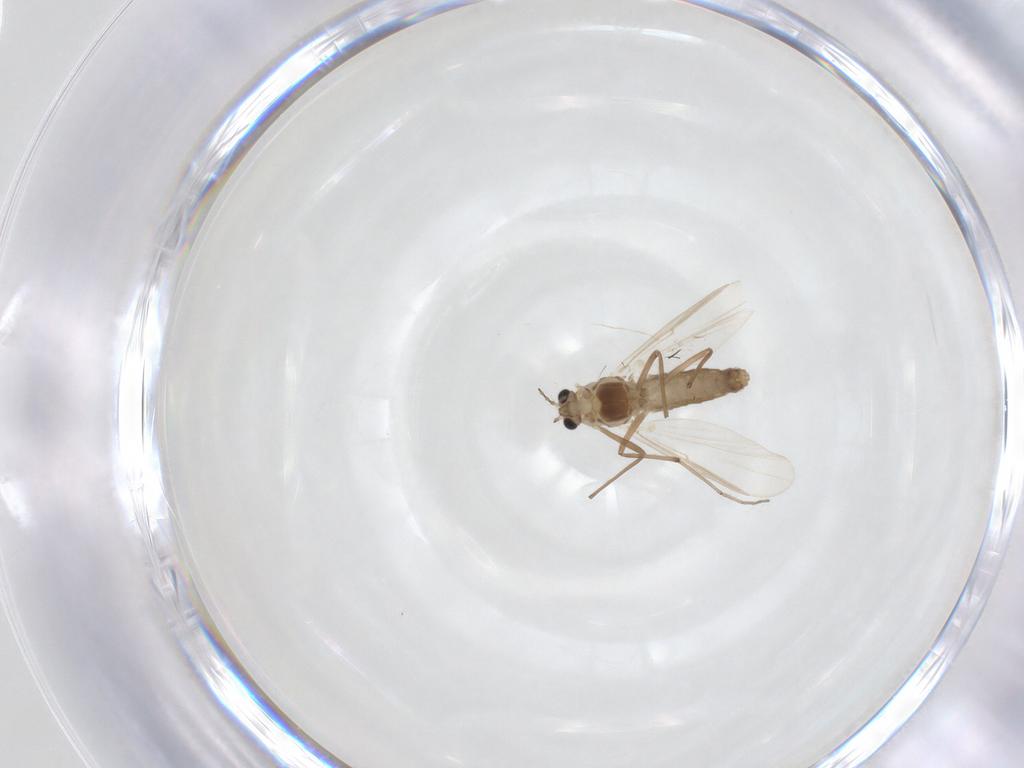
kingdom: Animalia
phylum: Arthropoda
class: Insecta
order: Diptera
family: Chironomidae
